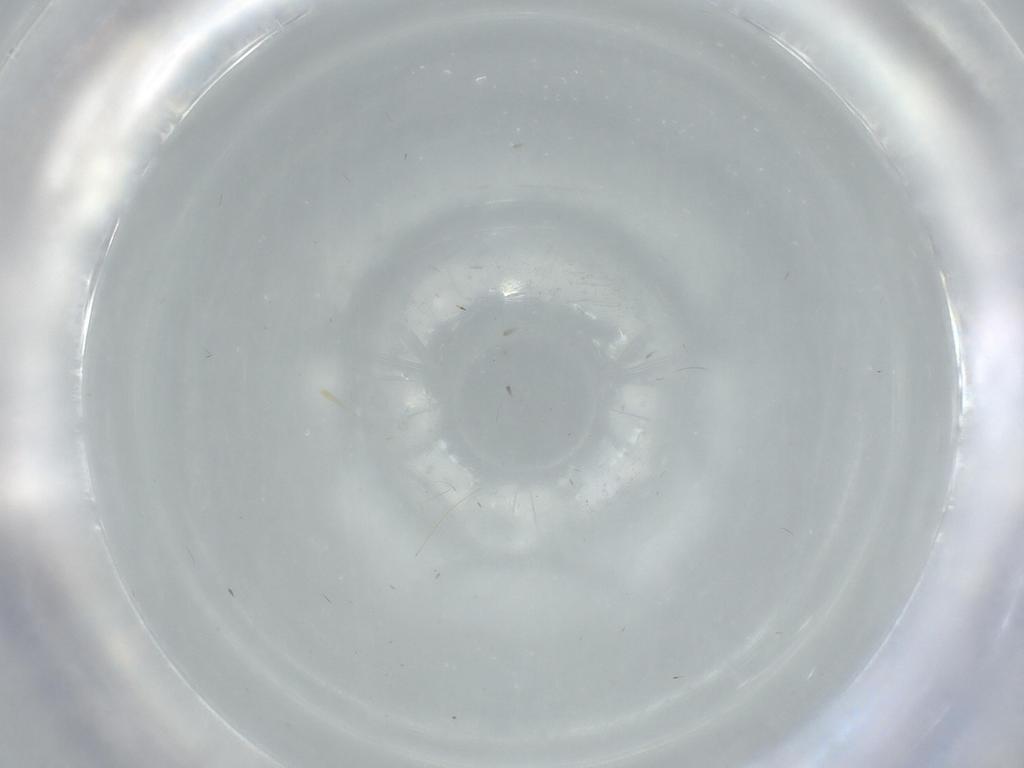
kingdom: Animalia
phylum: Arthropoda
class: Insecta
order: Diptera
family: Dolichopodidae
